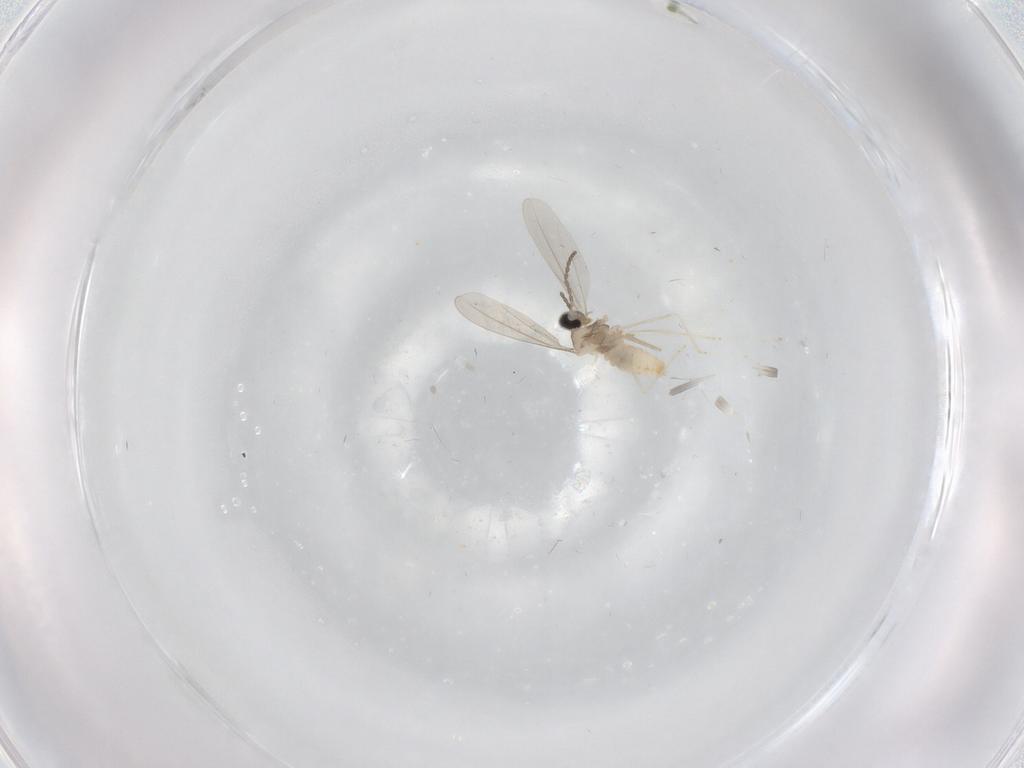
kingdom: Animalia
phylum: Arthropoda
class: Insecta
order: Diptera
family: Cecidomyiidae
